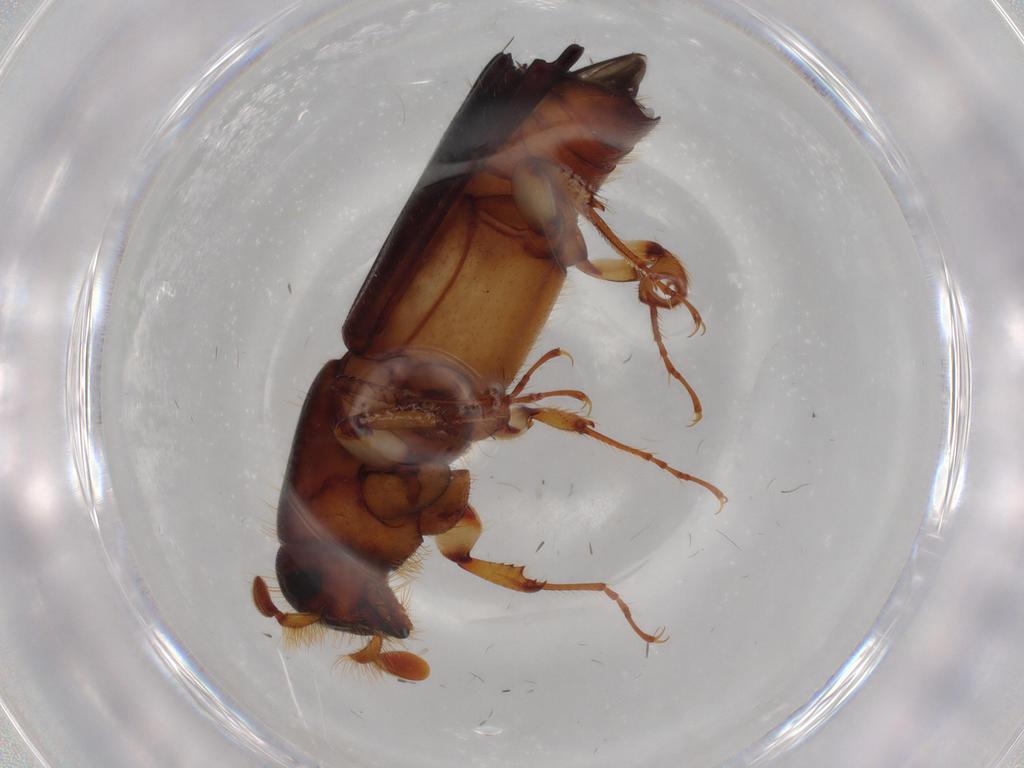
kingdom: Animalia
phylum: Arthropoda
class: Insecta
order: Coleoptera
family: Curculionidae
